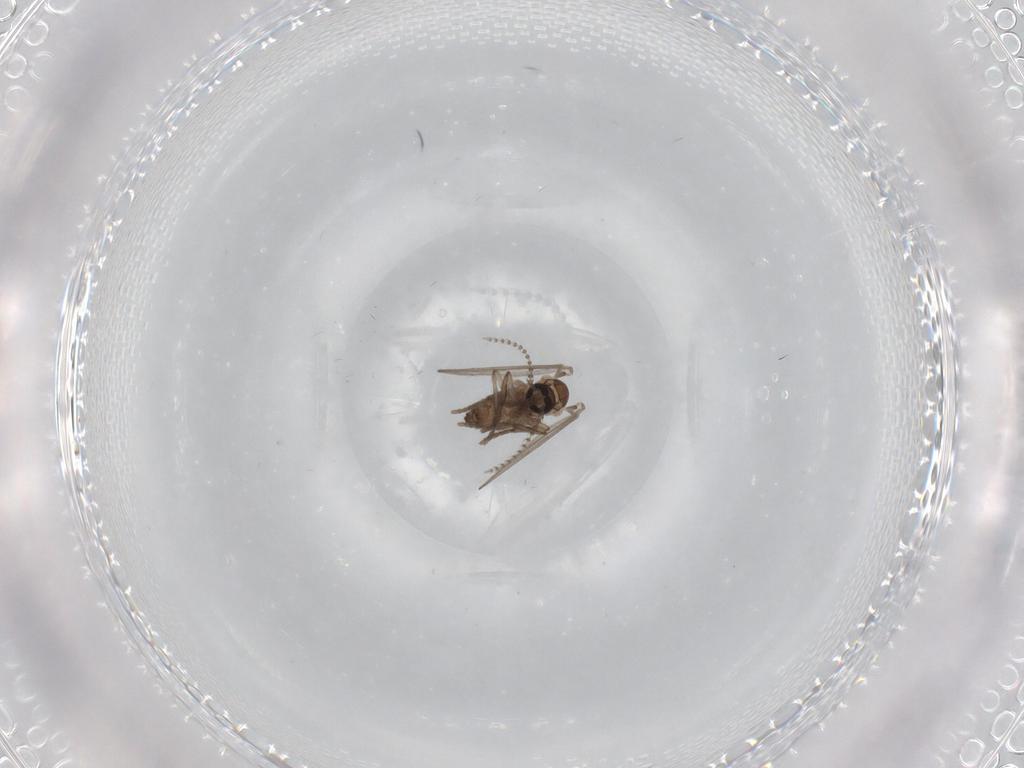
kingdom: Animalia
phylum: Arthropoda
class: Insecta
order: Diptera
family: Psychodidae
